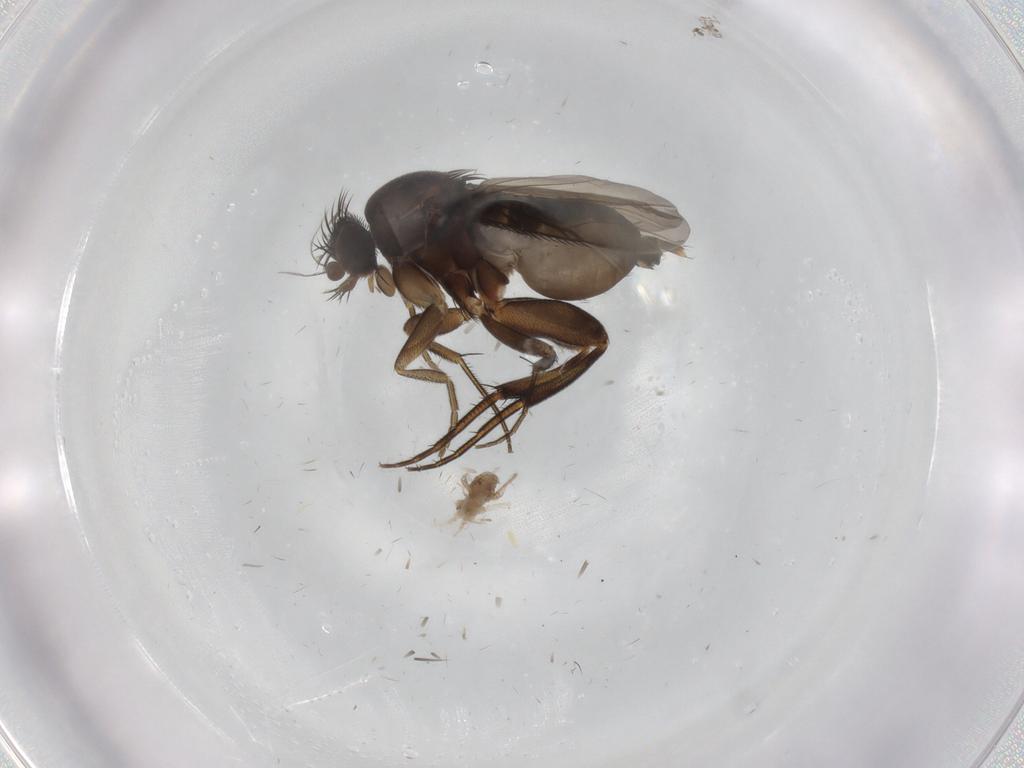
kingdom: Animalia
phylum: Arthropoda
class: Insecta
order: Diptera
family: Phoridae
